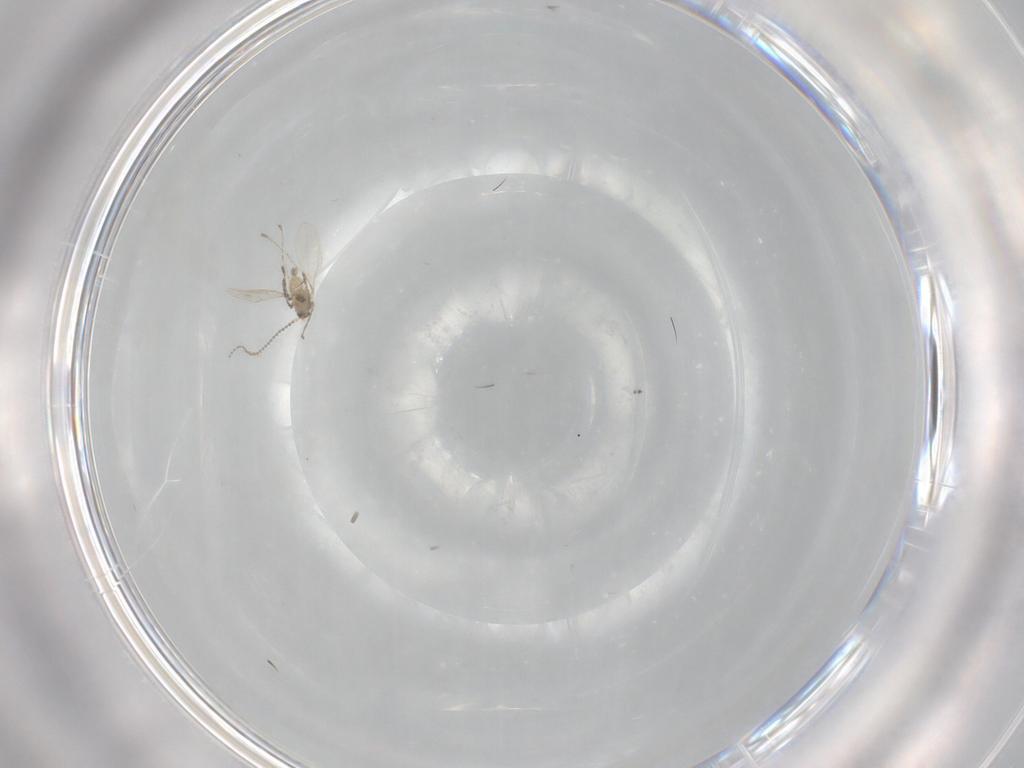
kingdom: Animalia
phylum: Arthropoda
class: Insecta
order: Diptera
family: Cecidomyiidae
